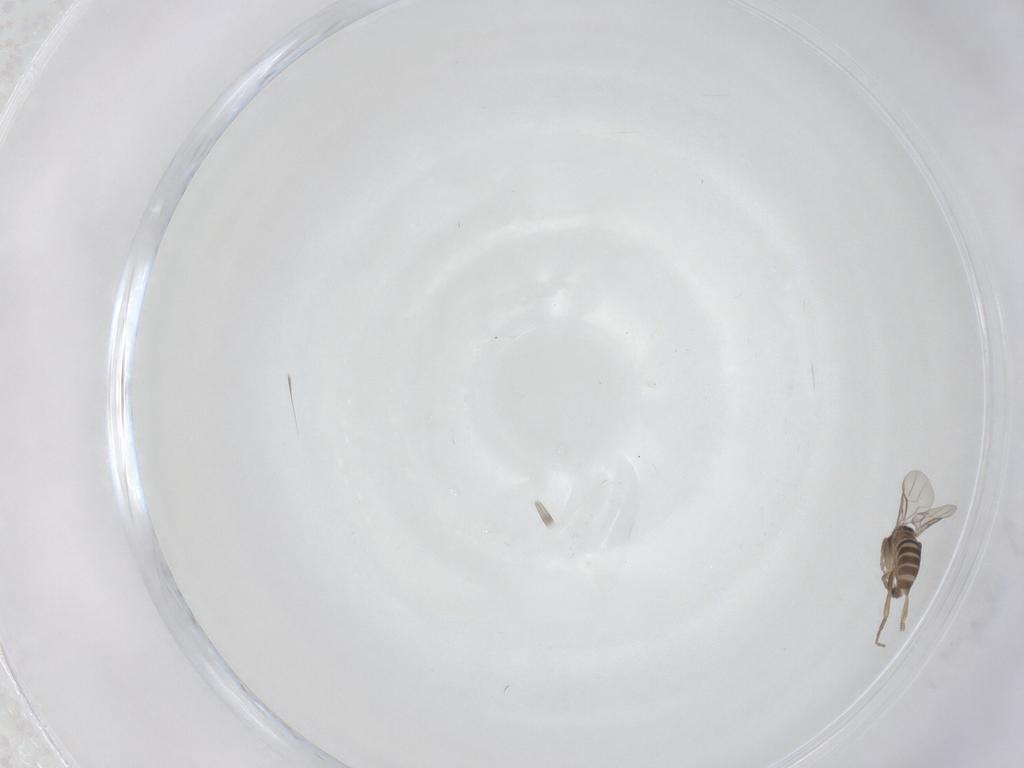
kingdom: Animalia
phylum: Arthropoda
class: Insecta
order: Diptera
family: Phoridae
